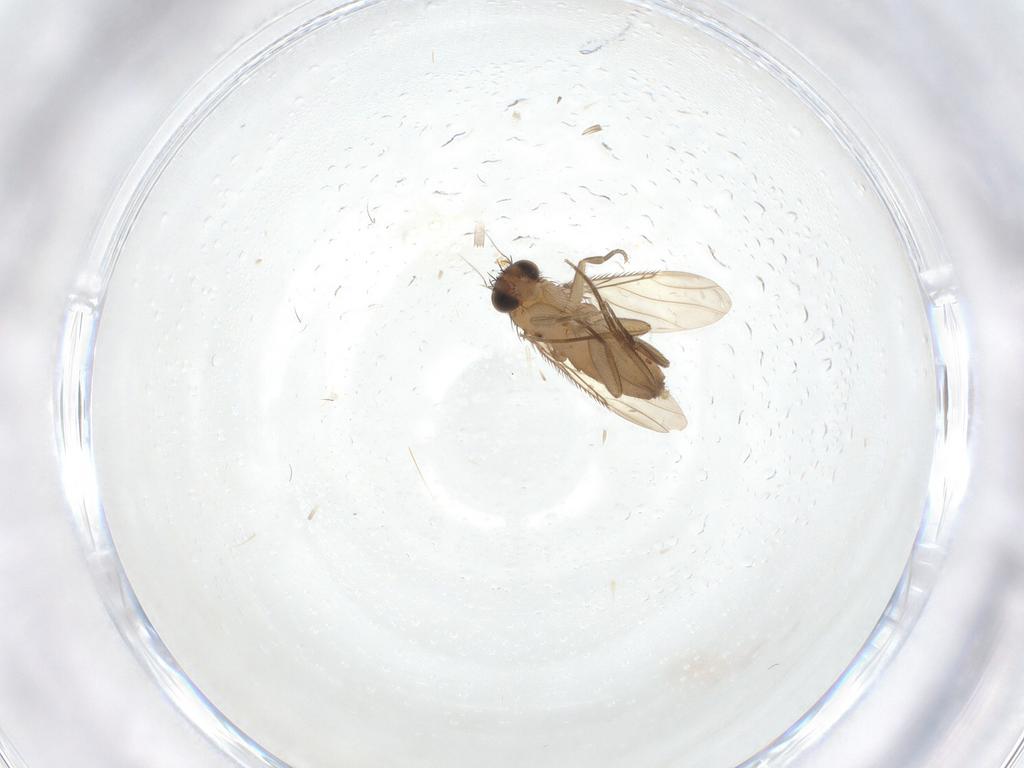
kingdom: Animalia
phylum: Arthropoda
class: Insecta
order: Diptera
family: Phoridae
